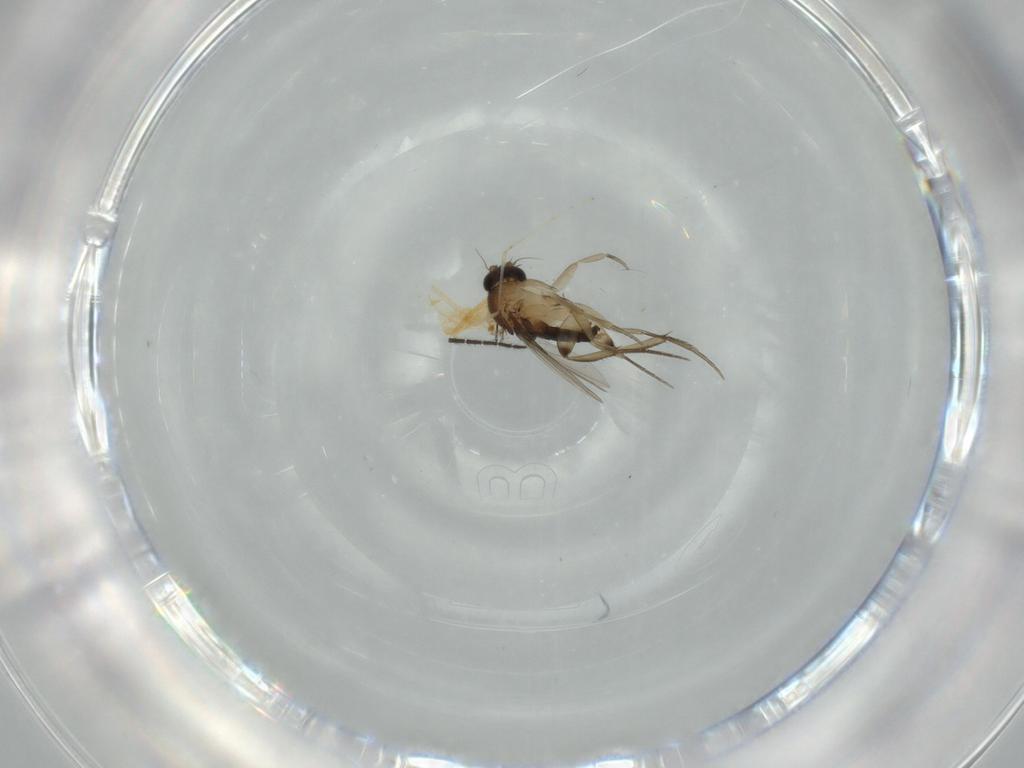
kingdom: Animalia
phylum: Arthropoda
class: Insecta
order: Diptera
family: Phoridae
